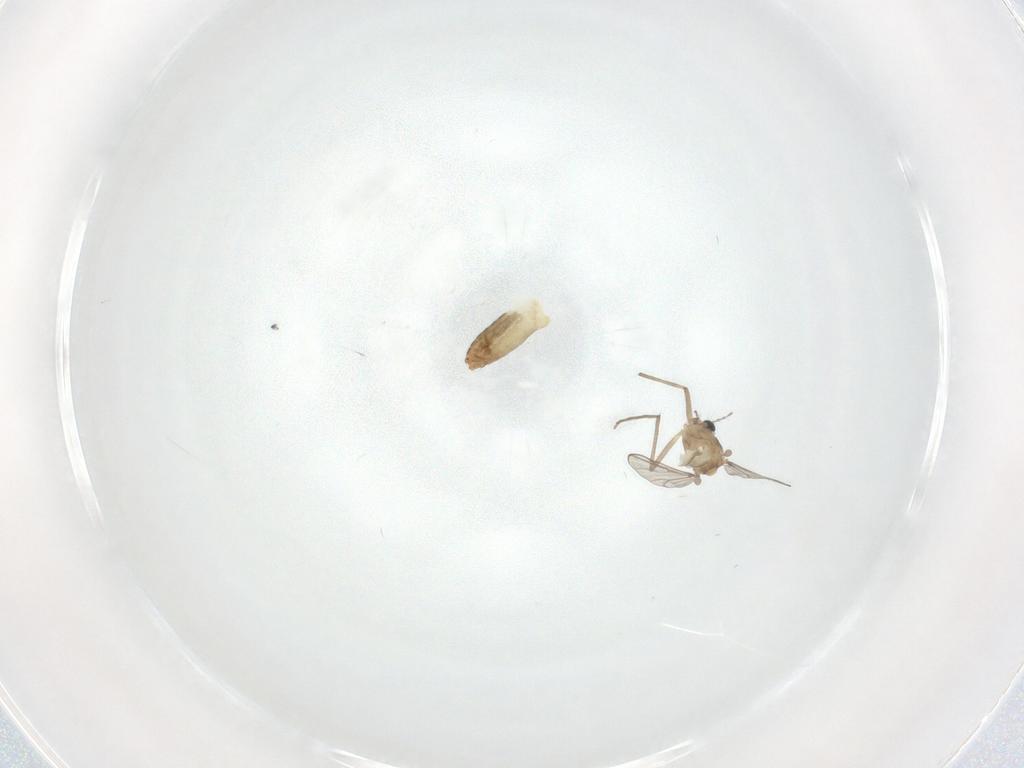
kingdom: Animalia
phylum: Arthropoda
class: Insecta
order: Diptera
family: Chironomidae
